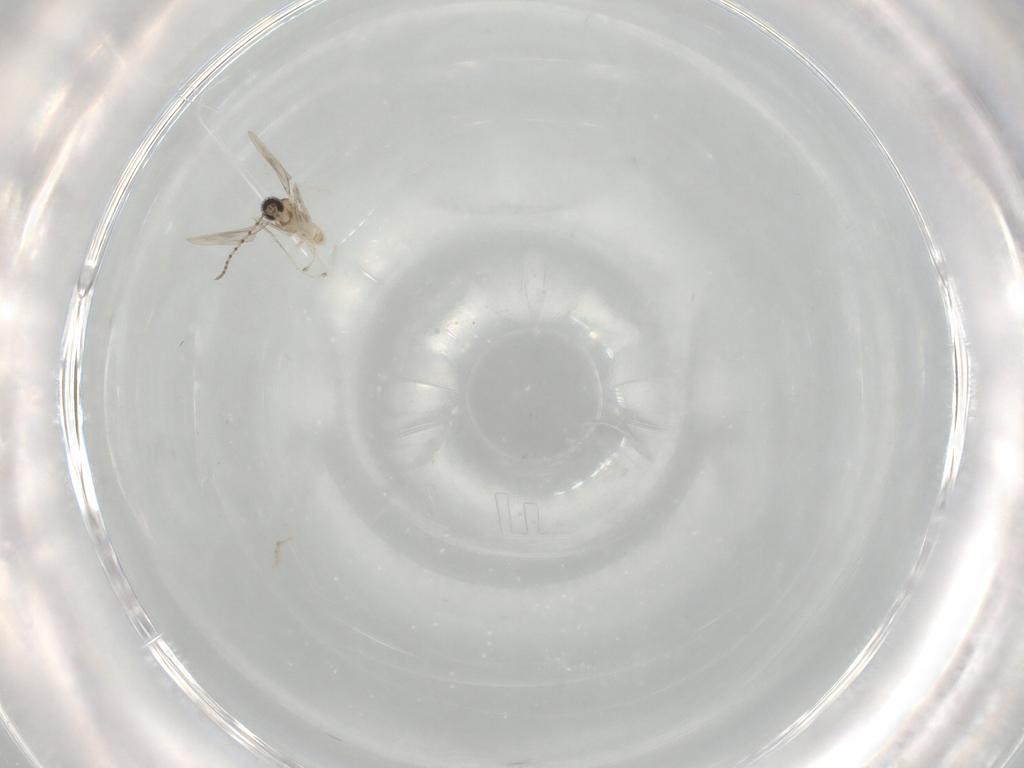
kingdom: Animalia
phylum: Arthropoda
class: Insecta
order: Diptera
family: Cecidomyiidae
